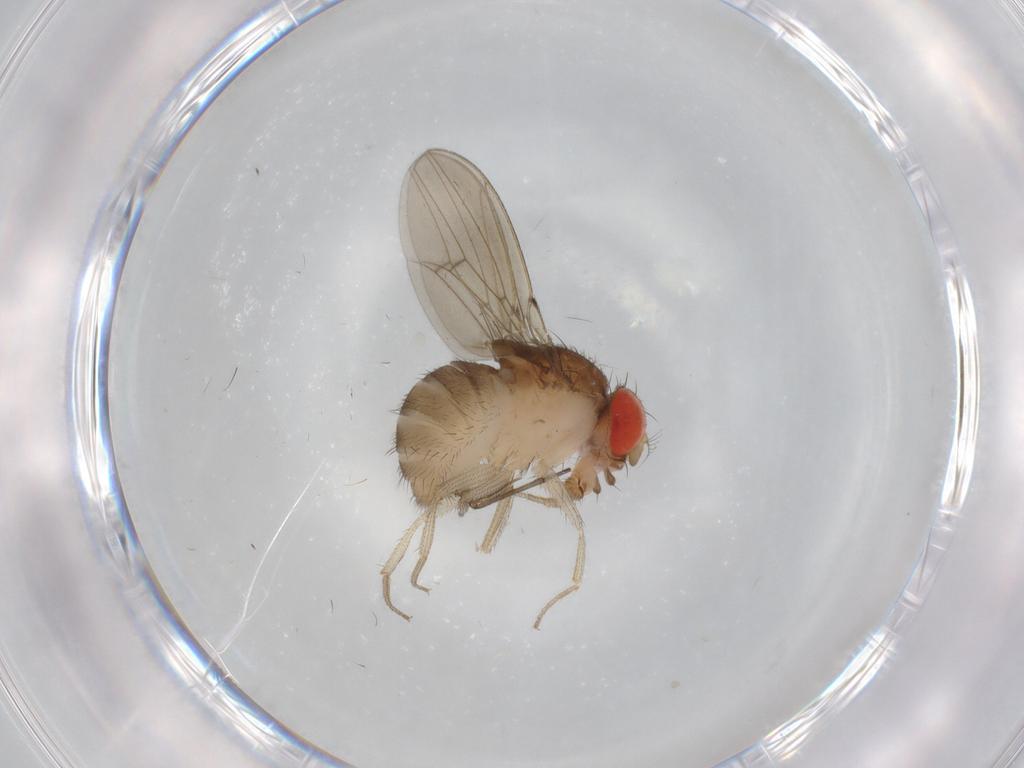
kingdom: Animalia
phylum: Arthropoda
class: Insecta
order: Diptera
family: Drosophilidae
